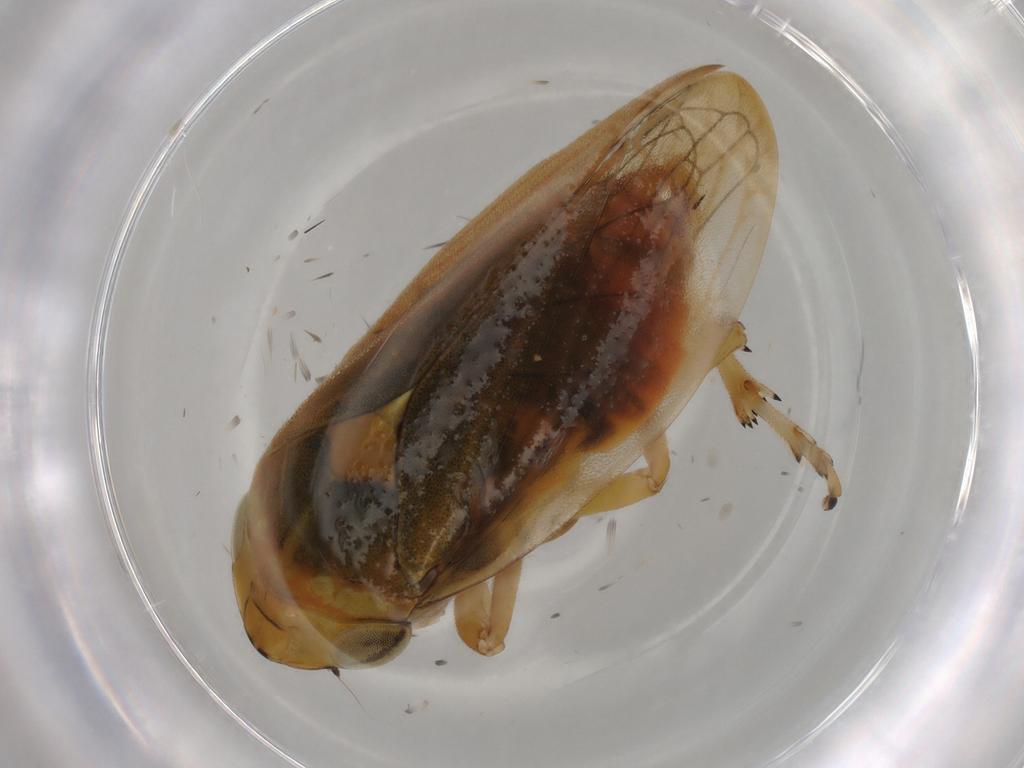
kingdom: Animalia
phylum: Arthropoda
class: Insecta
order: Hemiptera
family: Aphrophoridae
